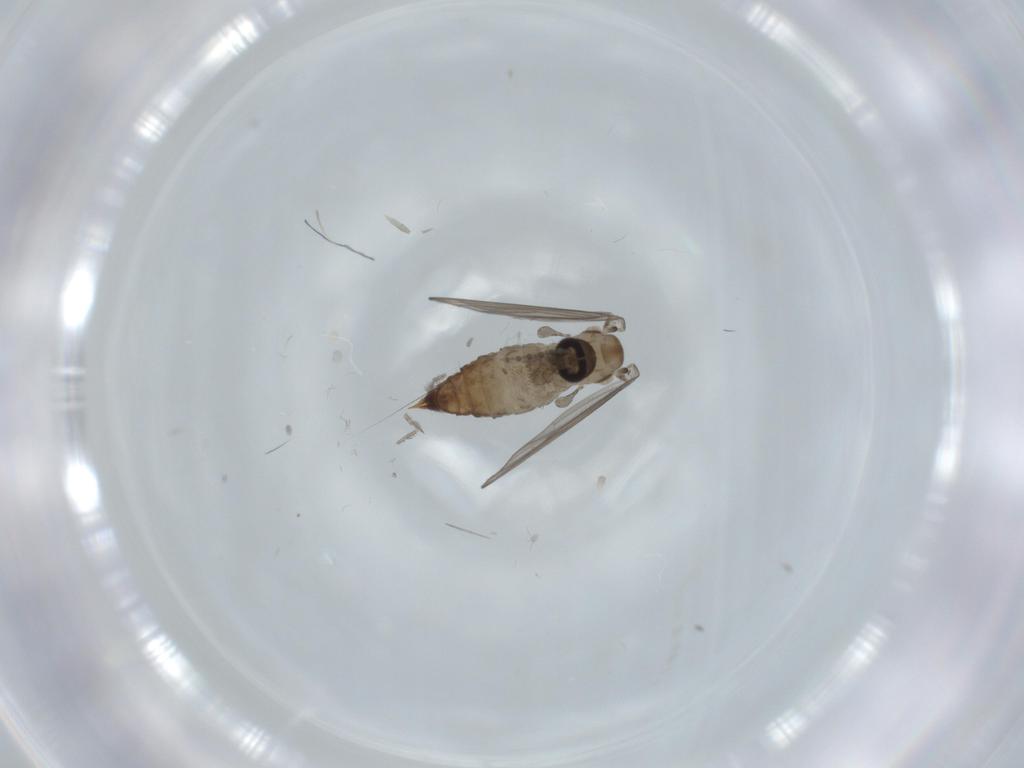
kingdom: Animalia
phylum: Arthropoda
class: Insecta
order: Diptera
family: Psychodidae
